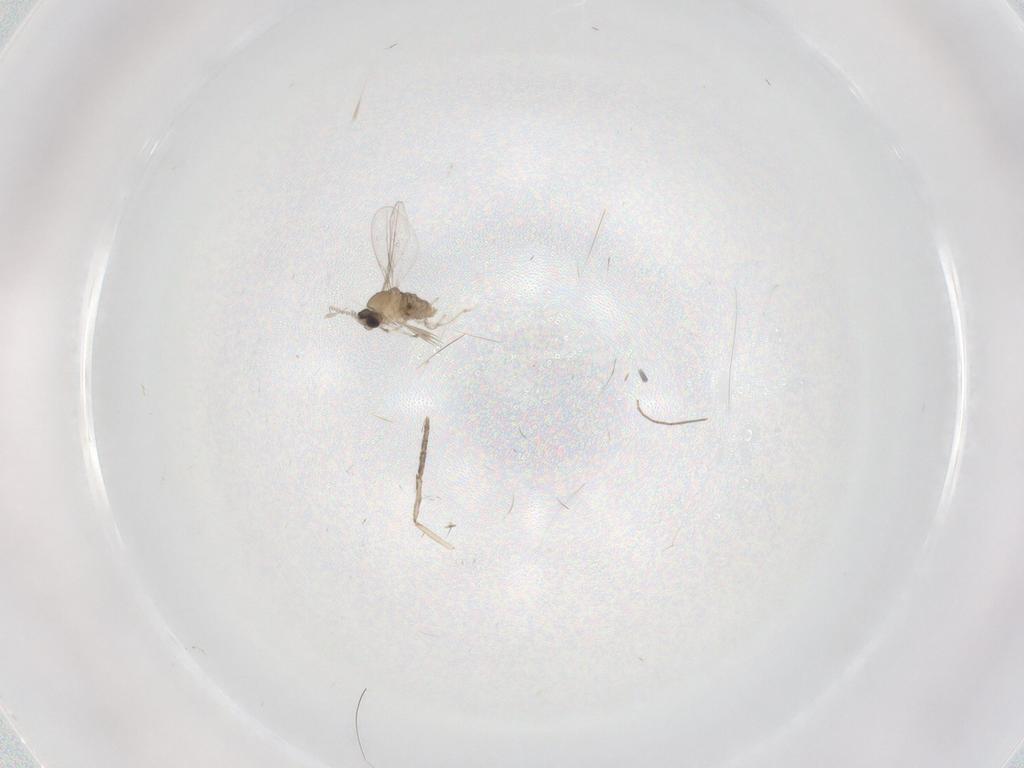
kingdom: Animalia
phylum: Arthropoda
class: Insecta
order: Diptera
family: Cecidomyiidae
